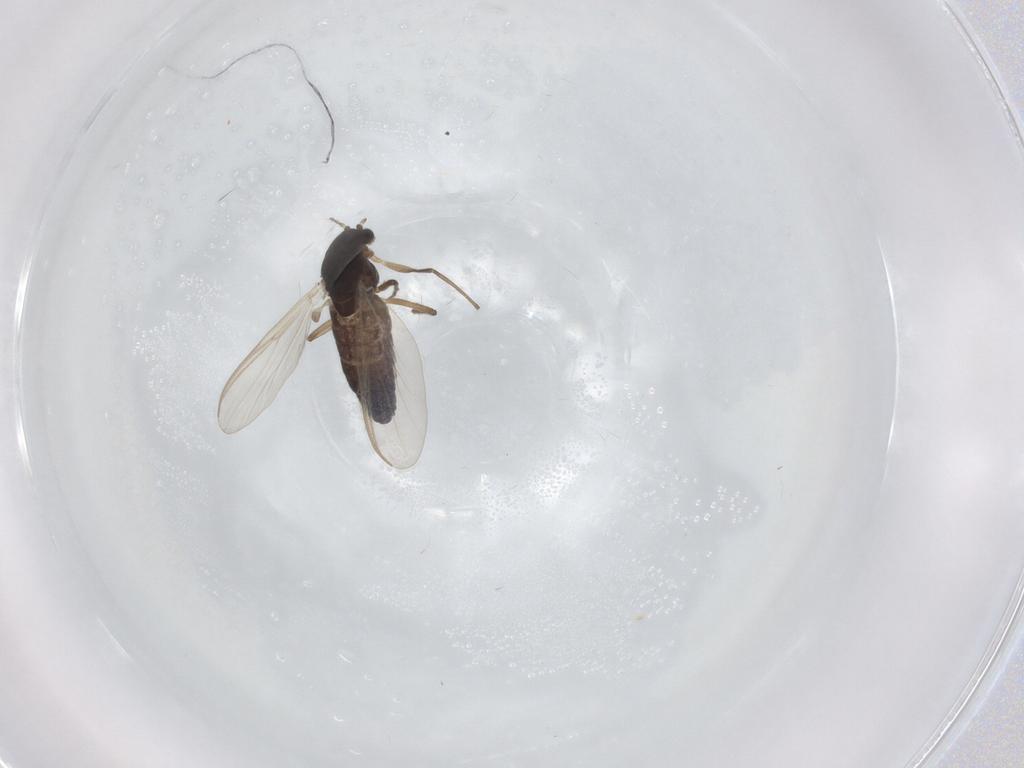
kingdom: Animalia
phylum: Arthropoda
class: Insecta
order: Diptera
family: Chironomidae
